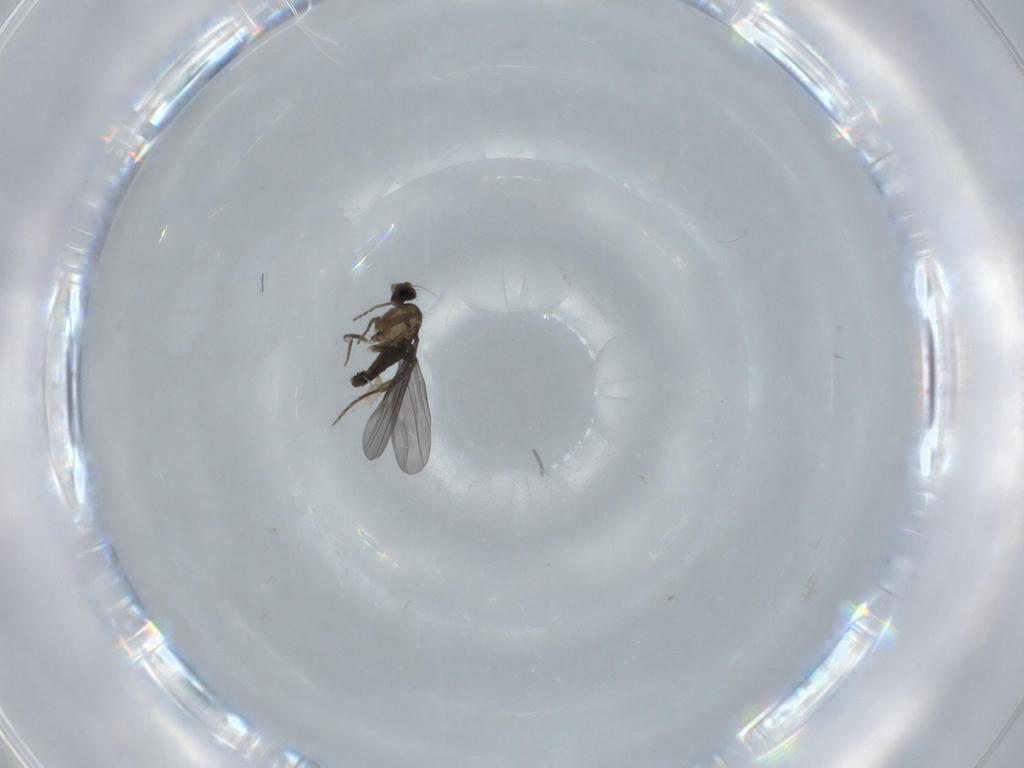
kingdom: Animalia
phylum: Arthropoda
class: Insecta
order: Diptera
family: Phoridae
